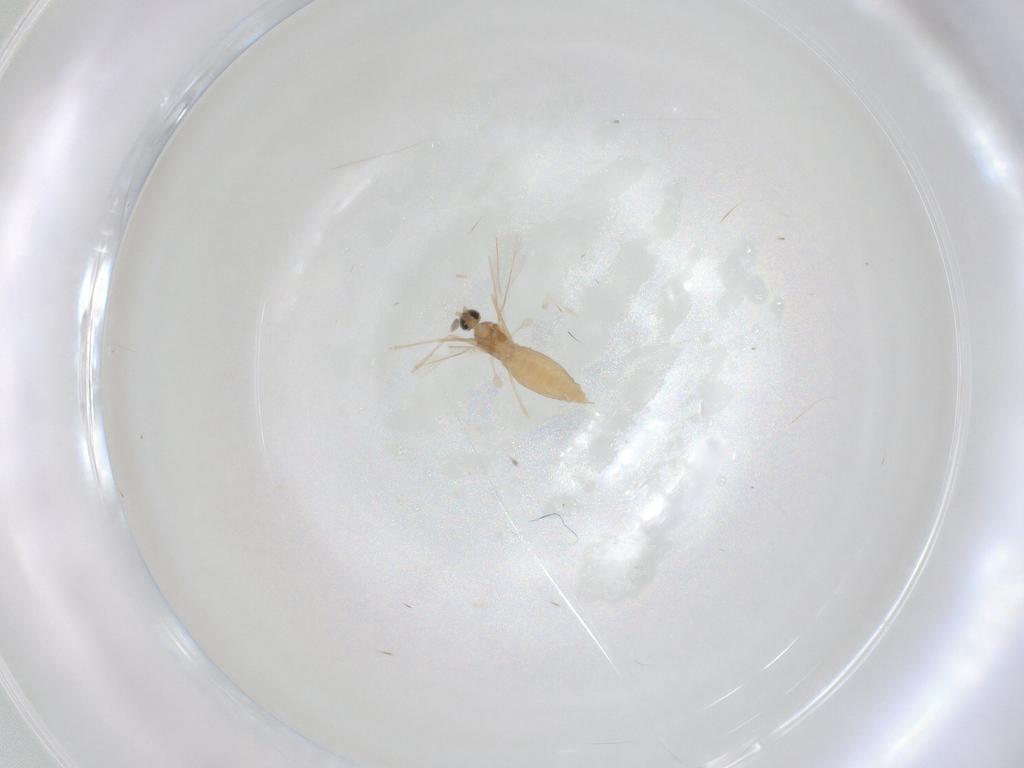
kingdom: Animalia
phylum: Arthropoda
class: Insecta
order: Diptera
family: Cecidomyiidae
